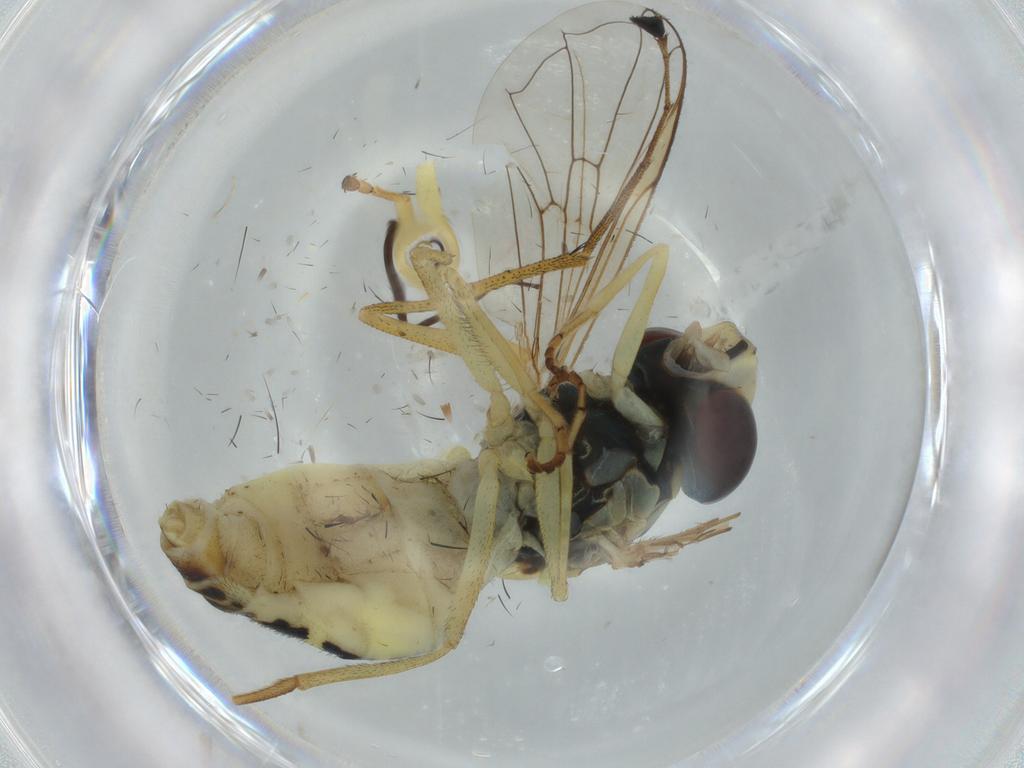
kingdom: Animalia
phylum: Arthropoda
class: Insecta
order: Diptera
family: Syrphidae
